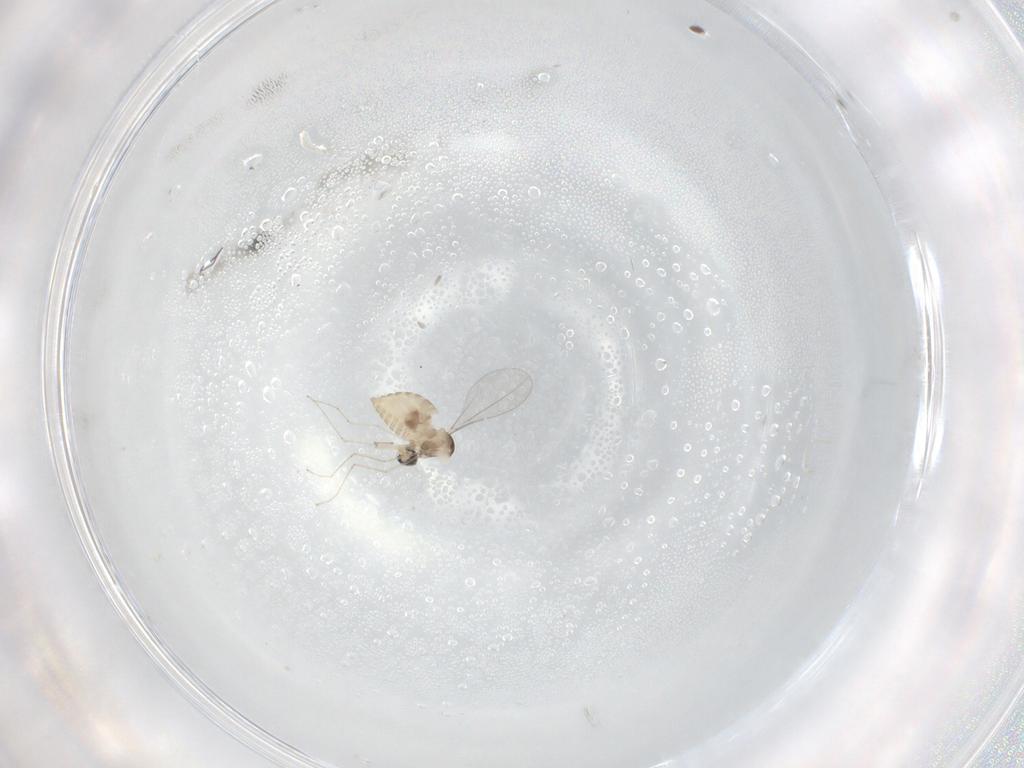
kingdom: Animalia
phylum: Arthropoda
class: Insecta
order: Diptera
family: Cecidomyiidae
